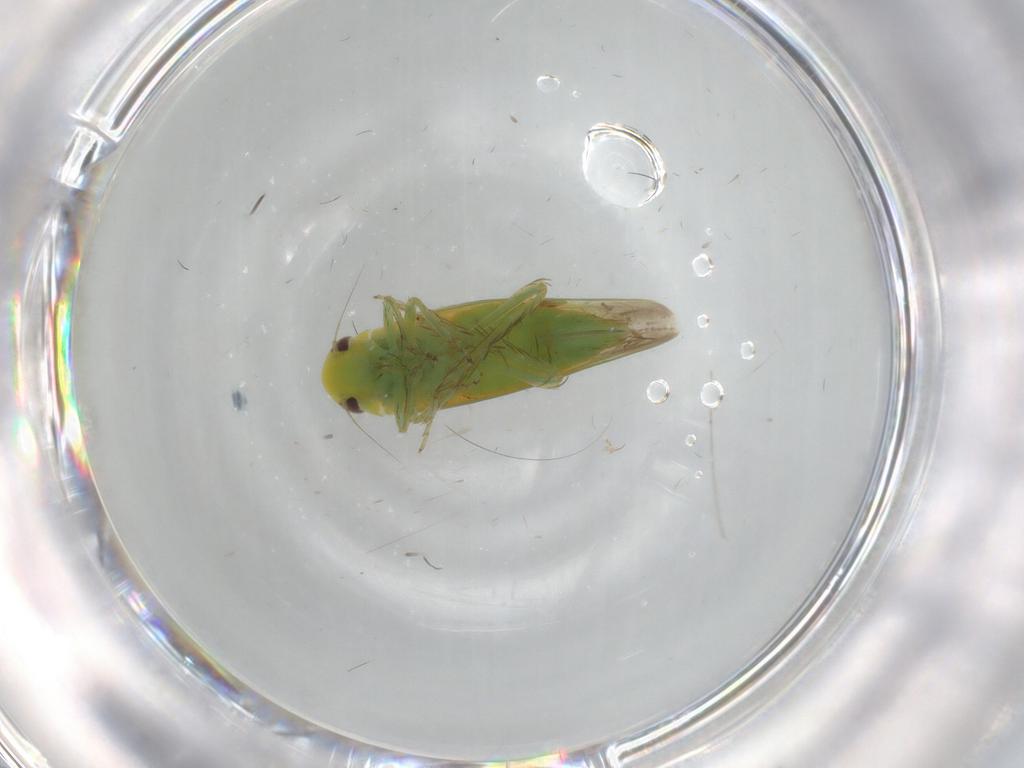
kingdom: Animalia
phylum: Arthropoda
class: Insecta
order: Hemiptera
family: Cicadellidae
